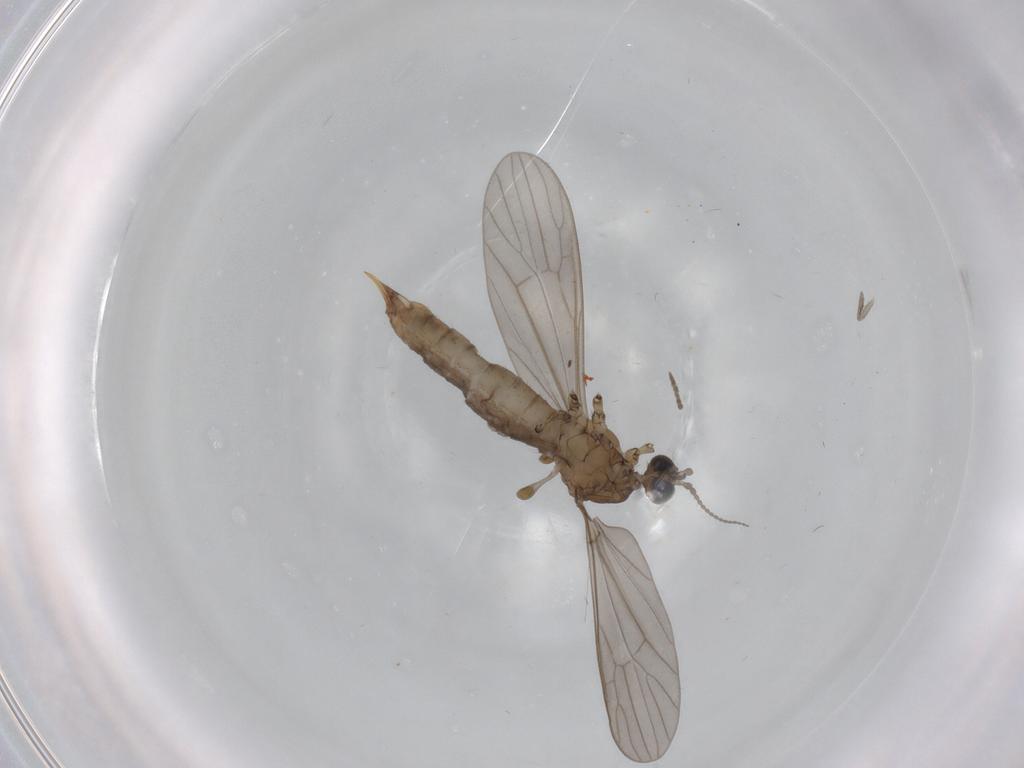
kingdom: Animalia
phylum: Arthropoda
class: Insecta
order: Diptera
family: Limoniidae
